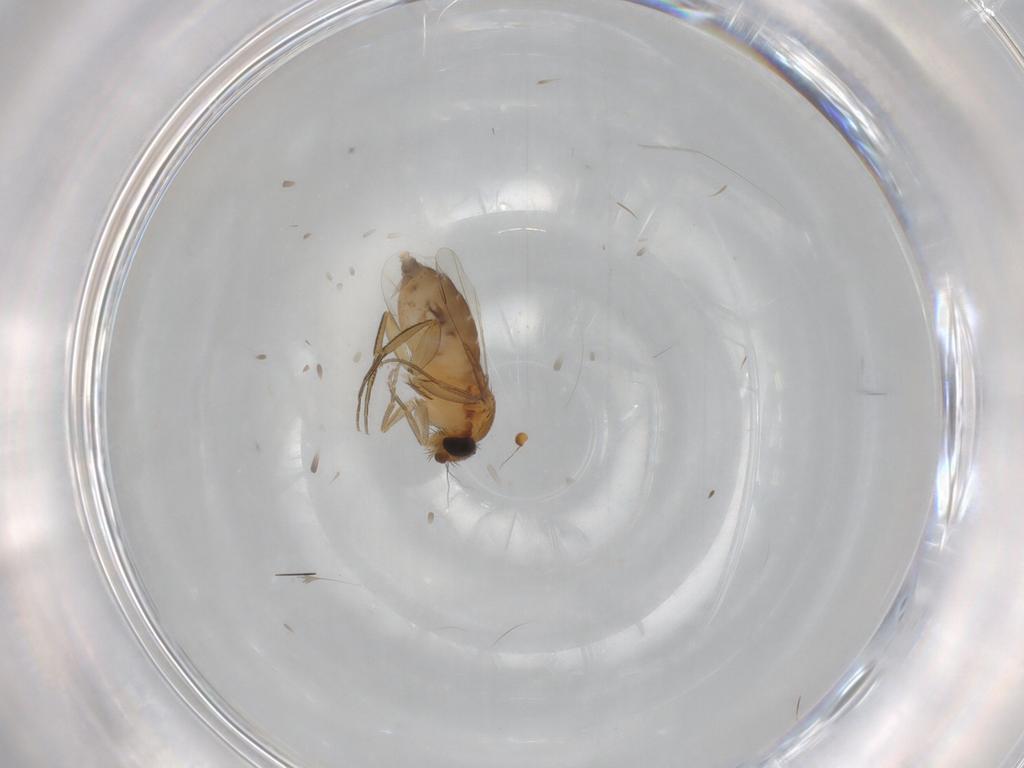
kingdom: Animalia
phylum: Arthropoda
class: Insecta
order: Diptera
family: Phoridae
